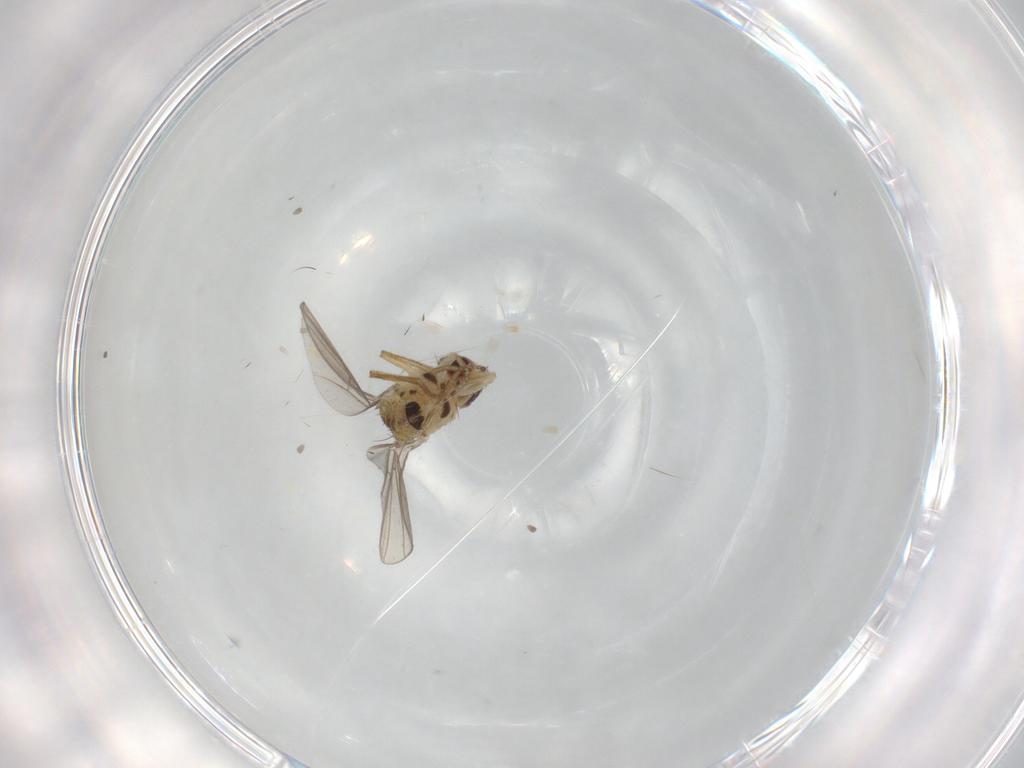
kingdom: Animalia
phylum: Arthropoda
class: Insecta
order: Diptera
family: Agromyzidae
